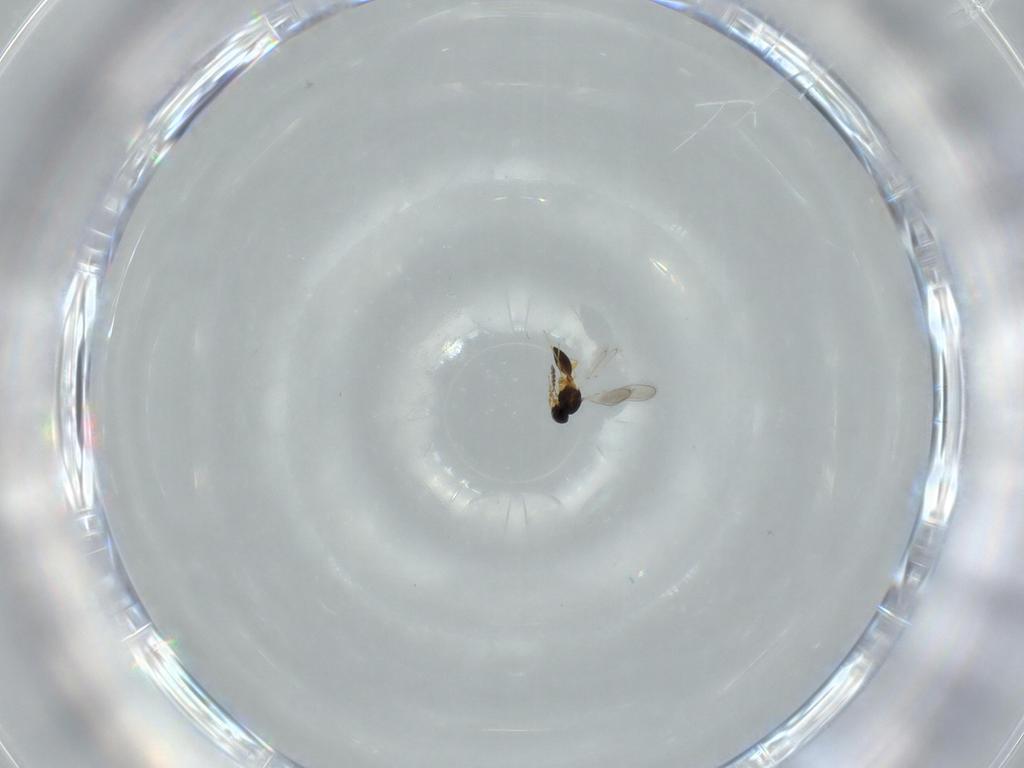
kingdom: Animalia
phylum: Arthropoda
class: Insecta
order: Hymenoptera
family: Platygastridae
